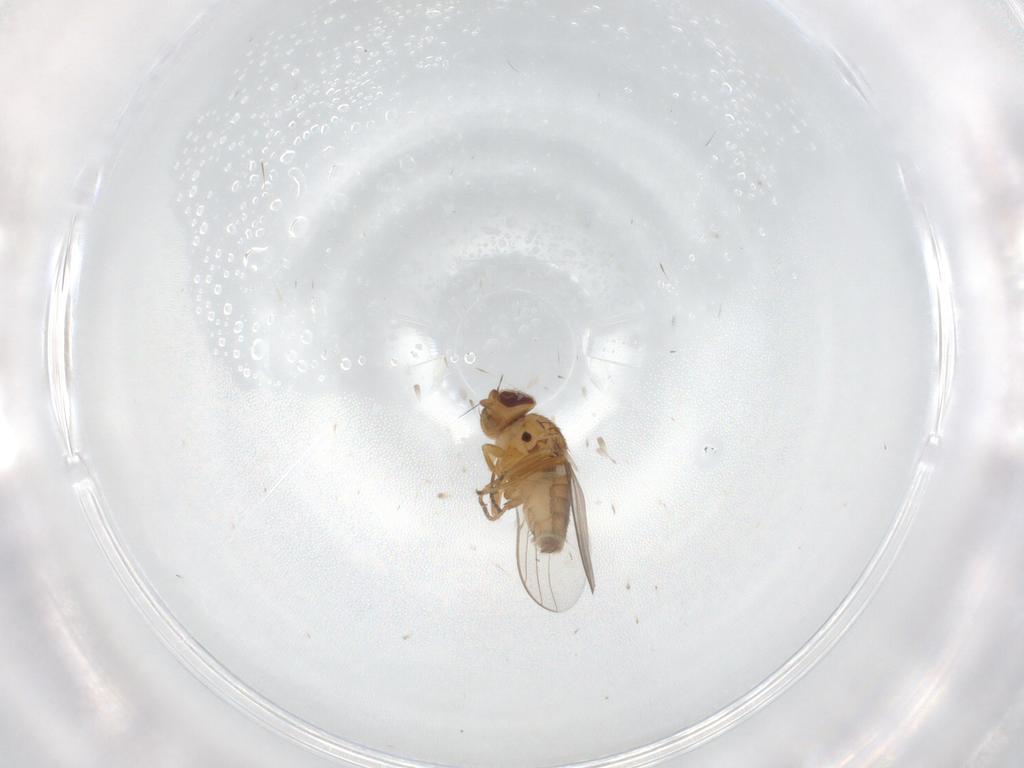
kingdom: Animalia
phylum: Arthropoda
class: Insecta
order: Diptera
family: Chloropidae
